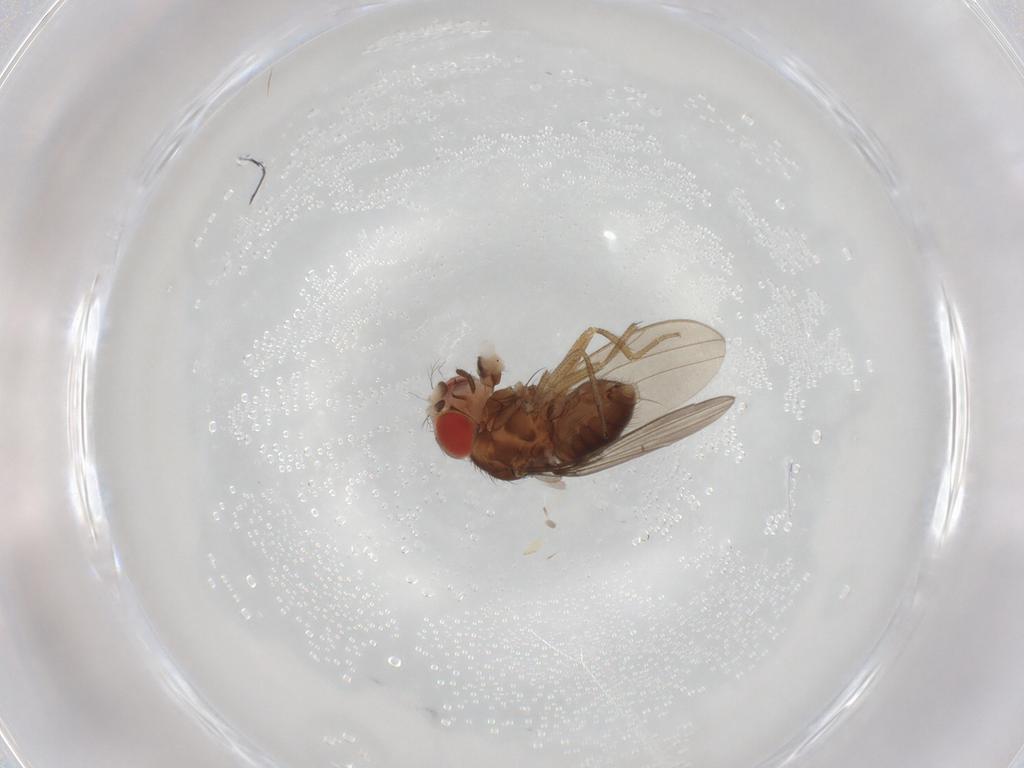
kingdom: Animalia
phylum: Arthropoda
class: Insecta
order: Diptera
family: Drosophilidae
